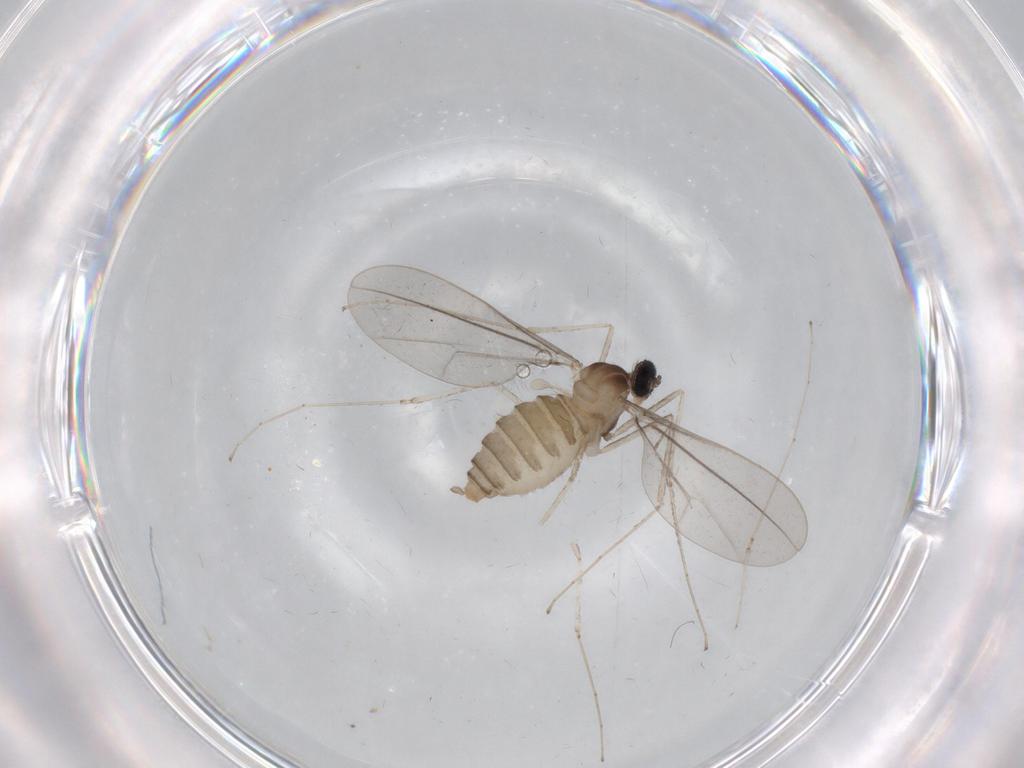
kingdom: Animalia
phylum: Arthropoda
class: Insecta
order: Diptera
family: Cecidomyiidae
